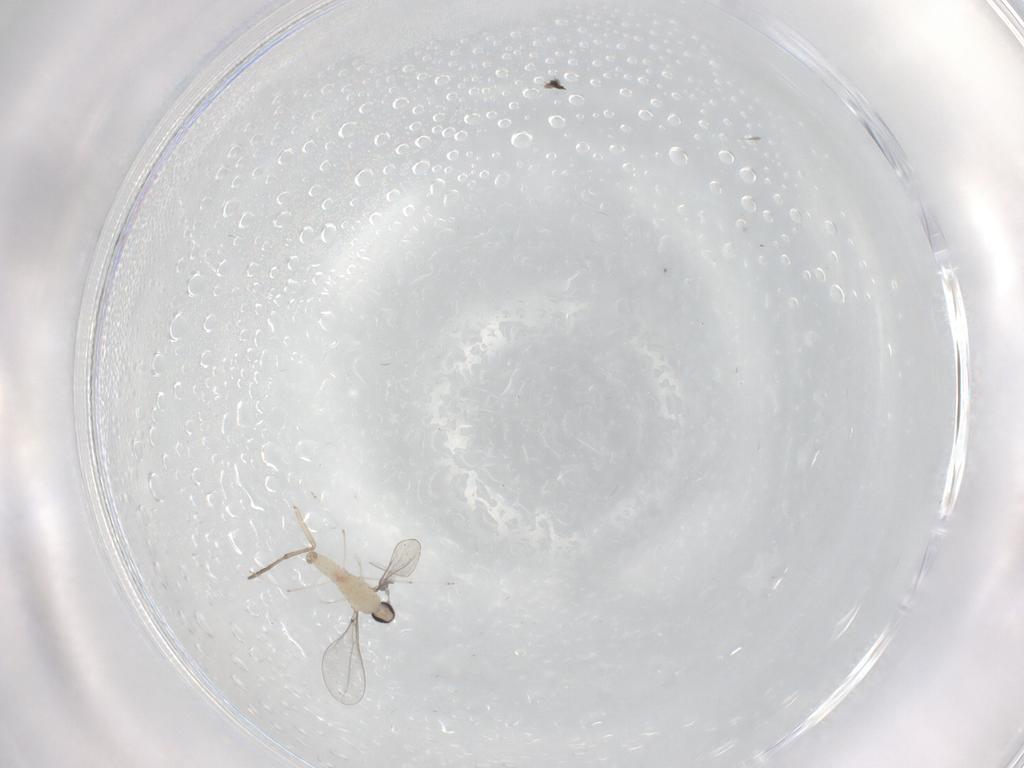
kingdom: Animalia
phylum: Arthropoda
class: Insecta
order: Diptera
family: Cecidomyiidae
